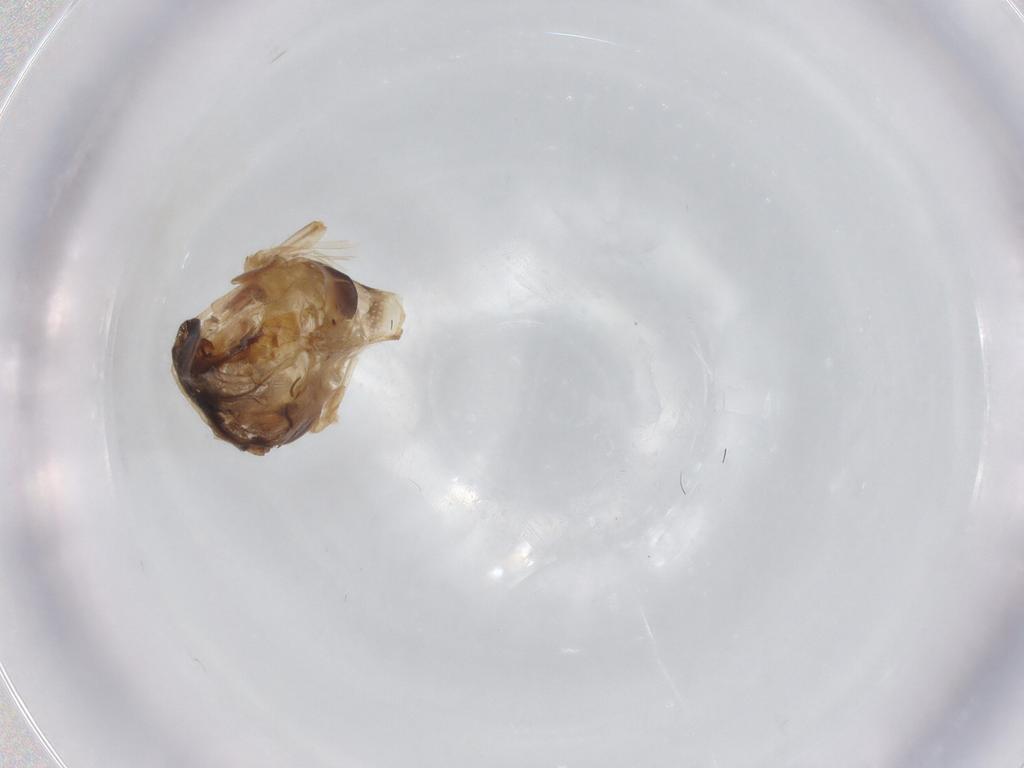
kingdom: Animalia
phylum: Arthropoda
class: Insecta
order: Diptera
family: Chironomidae
